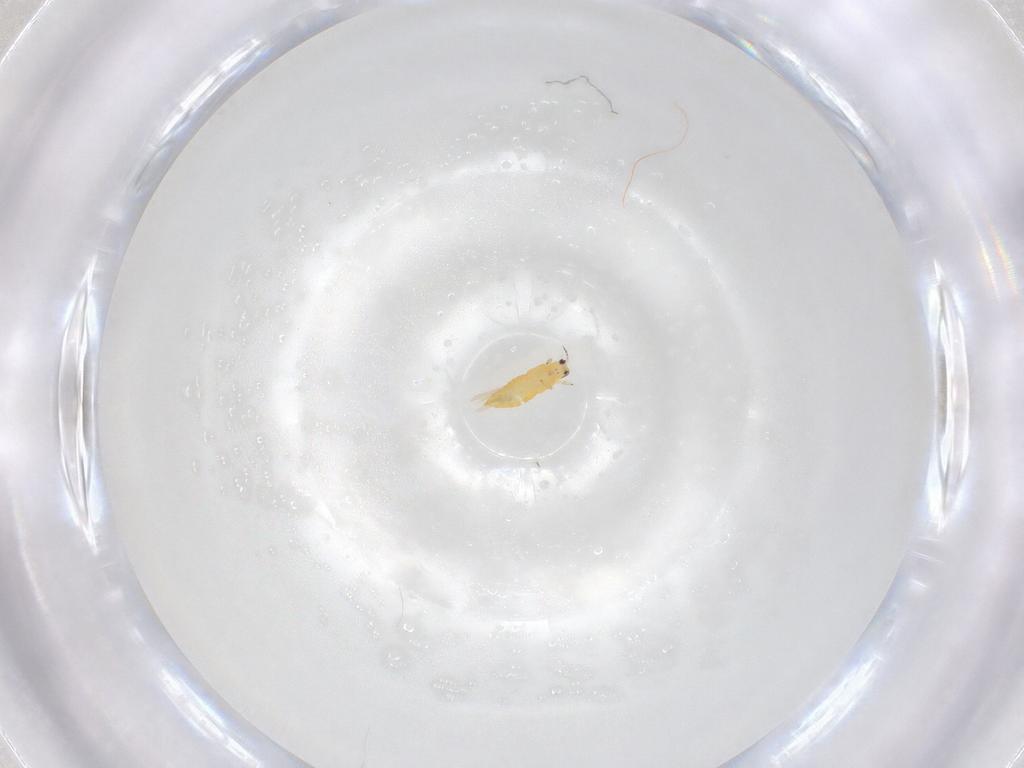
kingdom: Animalia
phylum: Arthropoda
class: Insecta
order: Thysanoptera
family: Thripidae
